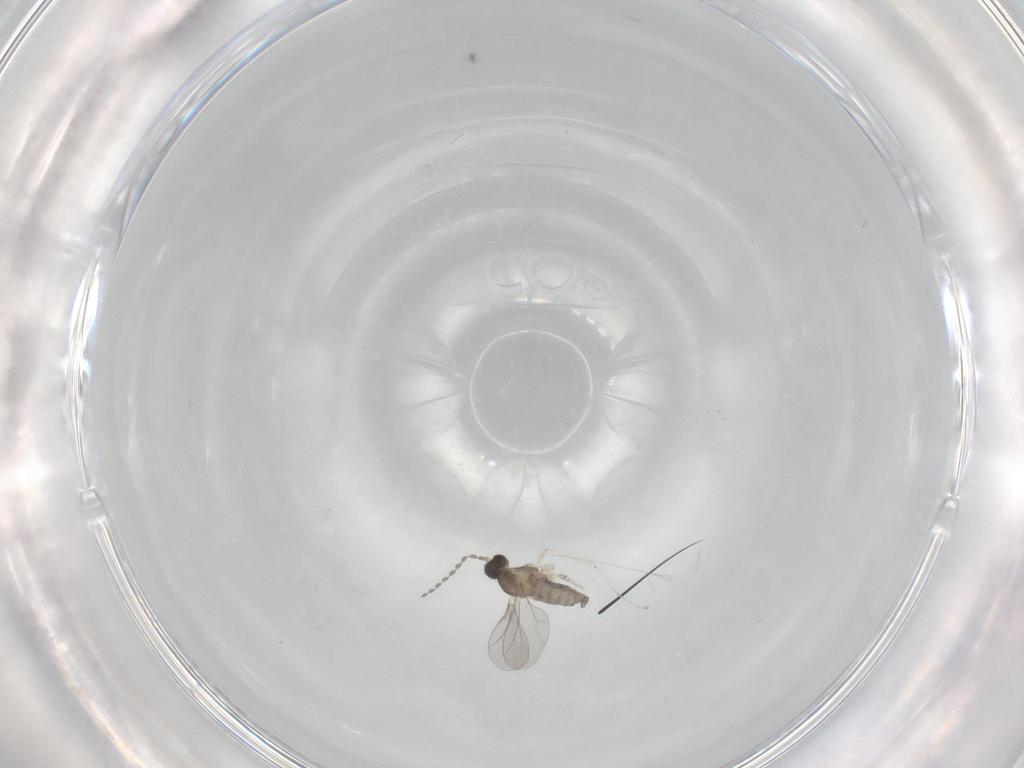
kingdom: Animalia
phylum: Arthropoda
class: Insecta
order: Diptera
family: Cecidomyiidae
